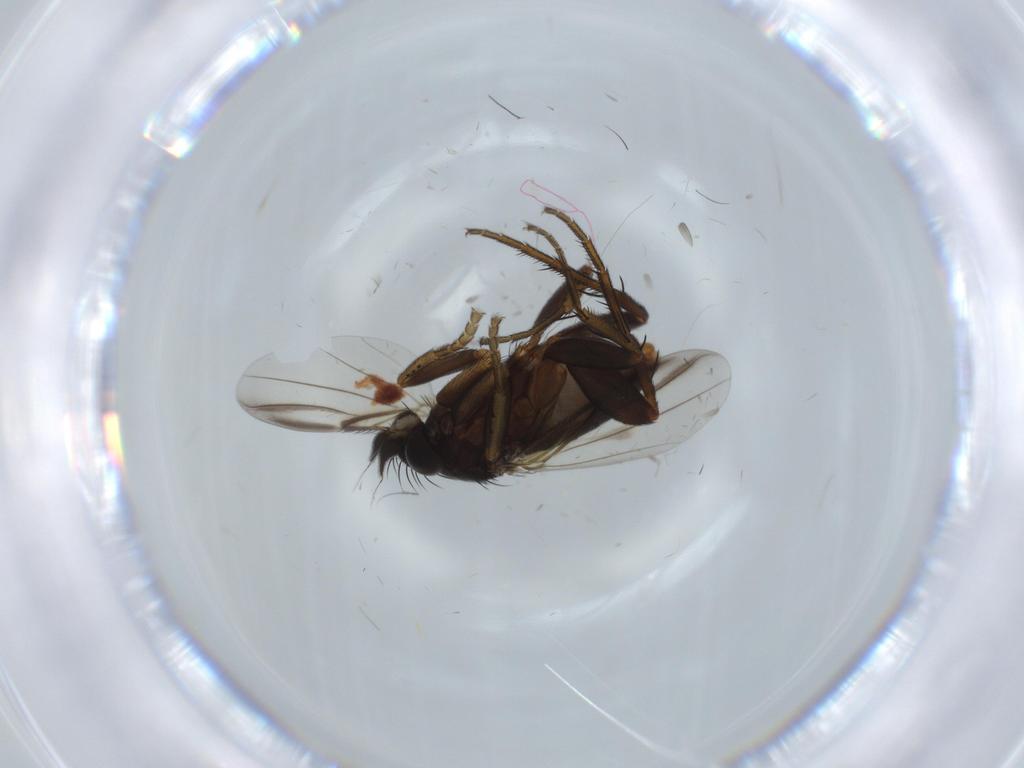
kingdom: Animalia
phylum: Arthropoda
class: Insecta
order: Diptera
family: Phoridae
